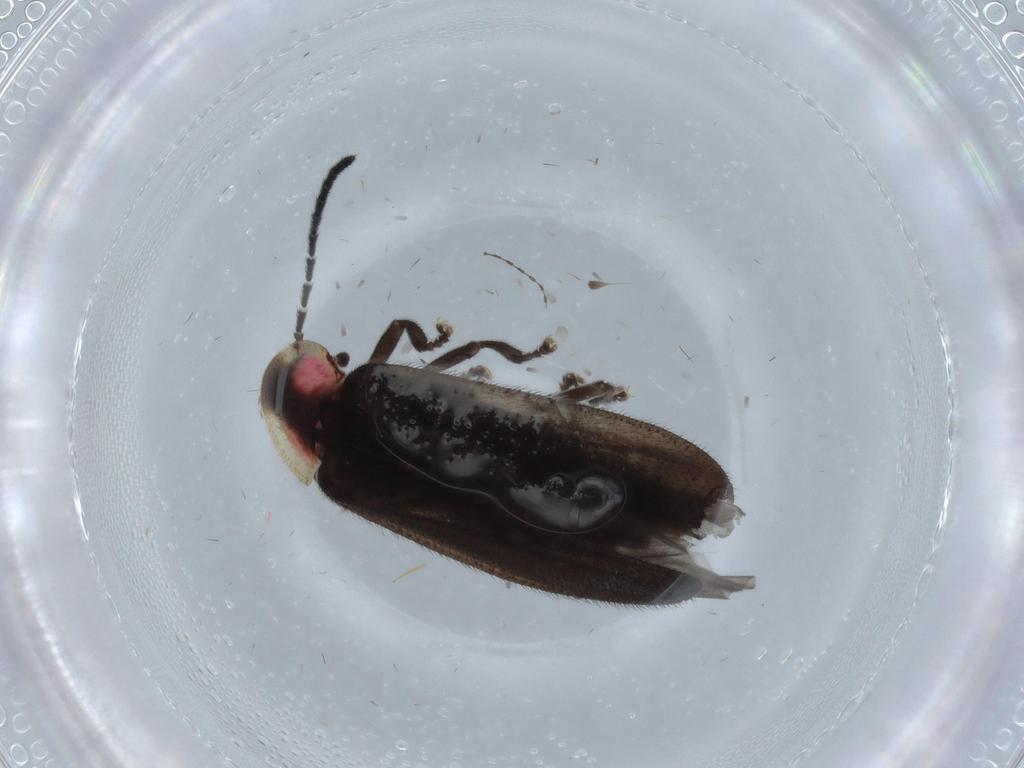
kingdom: Animalia
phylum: Arthropoda
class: Insecta
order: Coleoptera
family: Lampyridae
